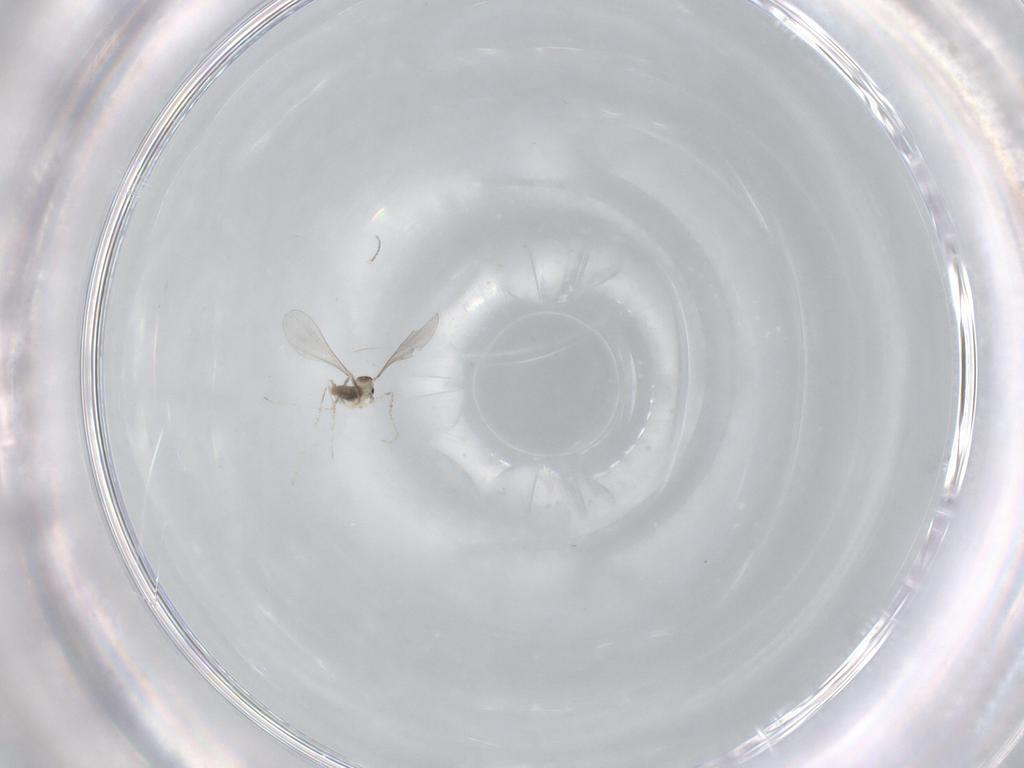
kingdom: Animalia
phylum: Arthropoda
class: Insecta
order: Diptera
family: Cecidomyiidae
